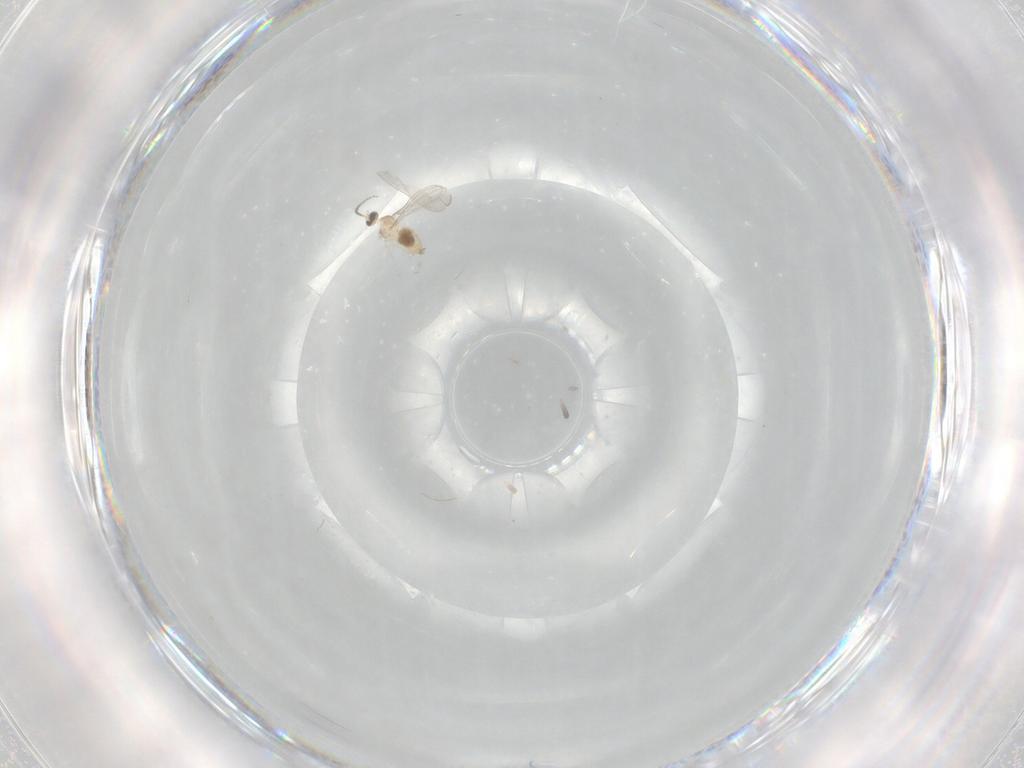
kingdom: Animalia
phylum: Arthropoda
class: Insecta
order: Diptera
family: Cecidomyiidae
